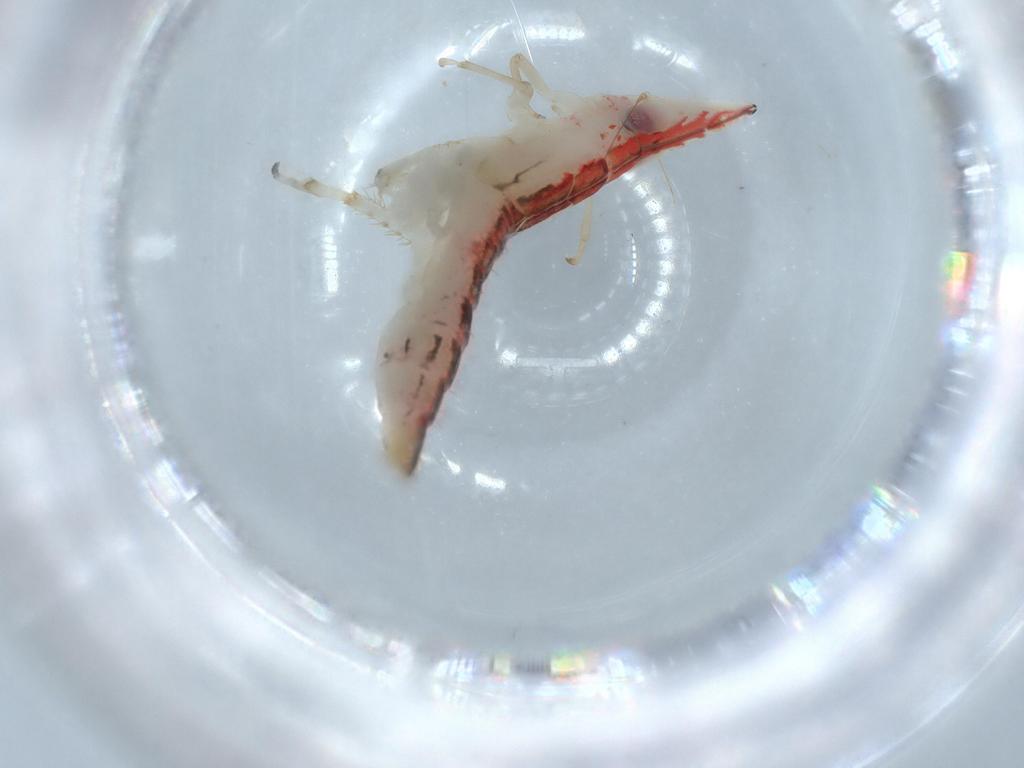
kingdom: Animalia
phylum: Arthropoda
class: Insecta
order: Hemiptera
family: Cicadellidae
